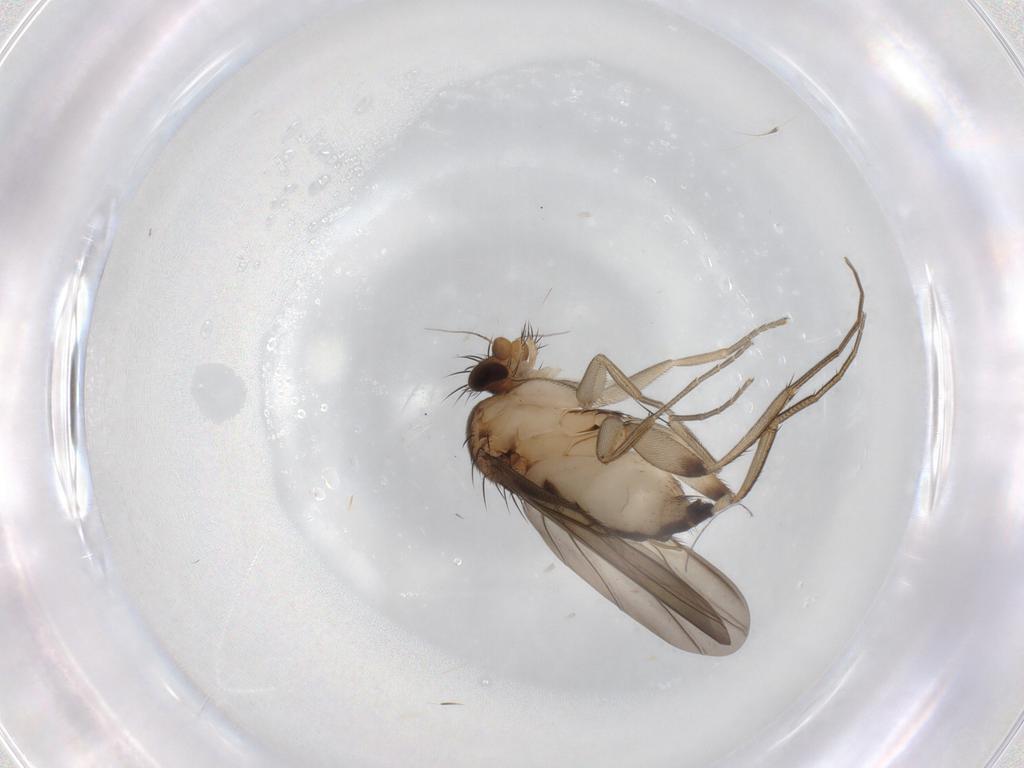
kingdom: Animalia
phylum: Arthropoda
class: Insecta
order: Diptera
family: Phoridae
